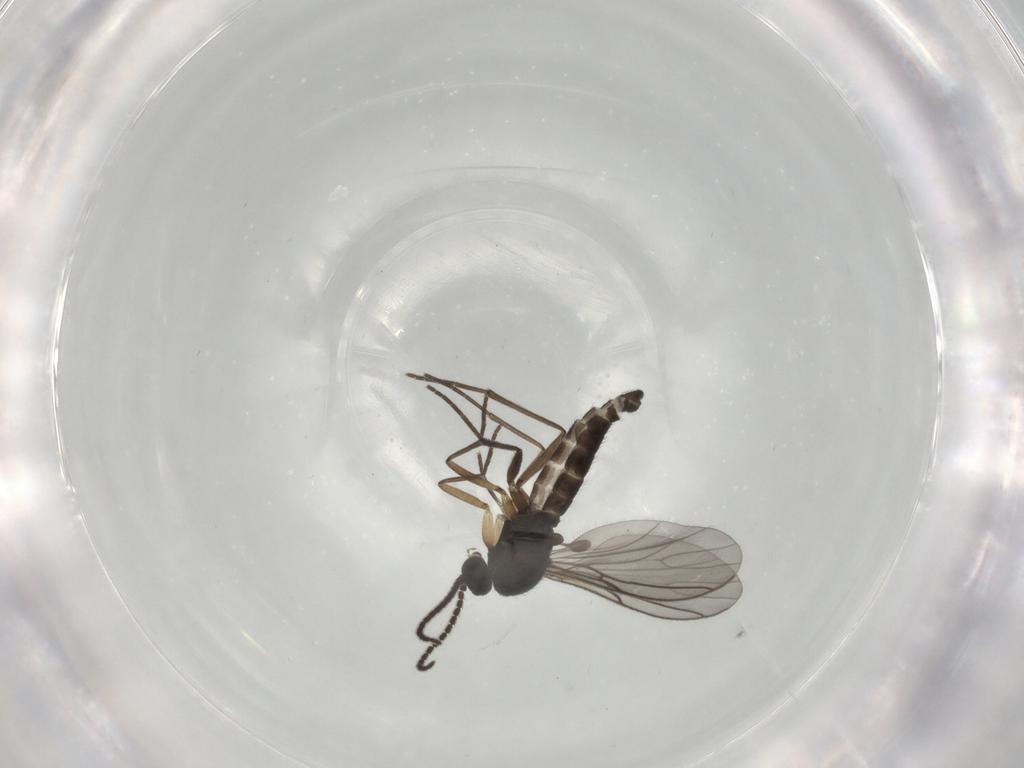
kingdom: Animalia
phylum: Arthropoda
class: Insecta
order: Diptera
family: Sciaridae
